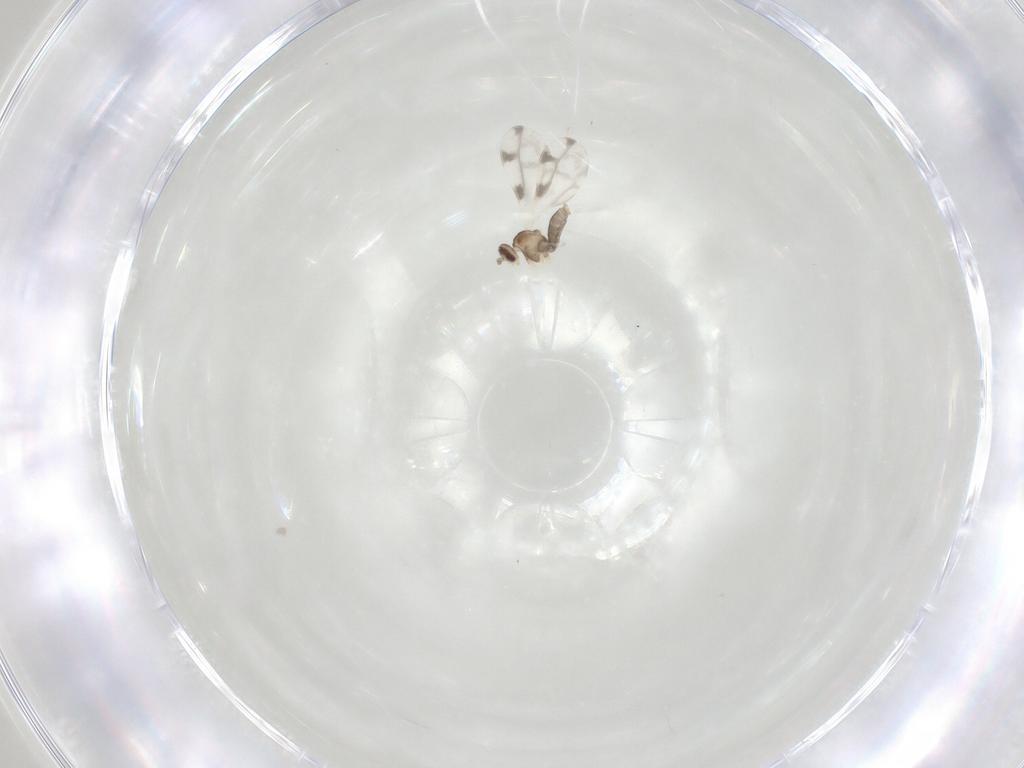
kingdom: Animalia
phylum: Arthropoda
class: Insecta
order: Diptera
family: Muscidae
